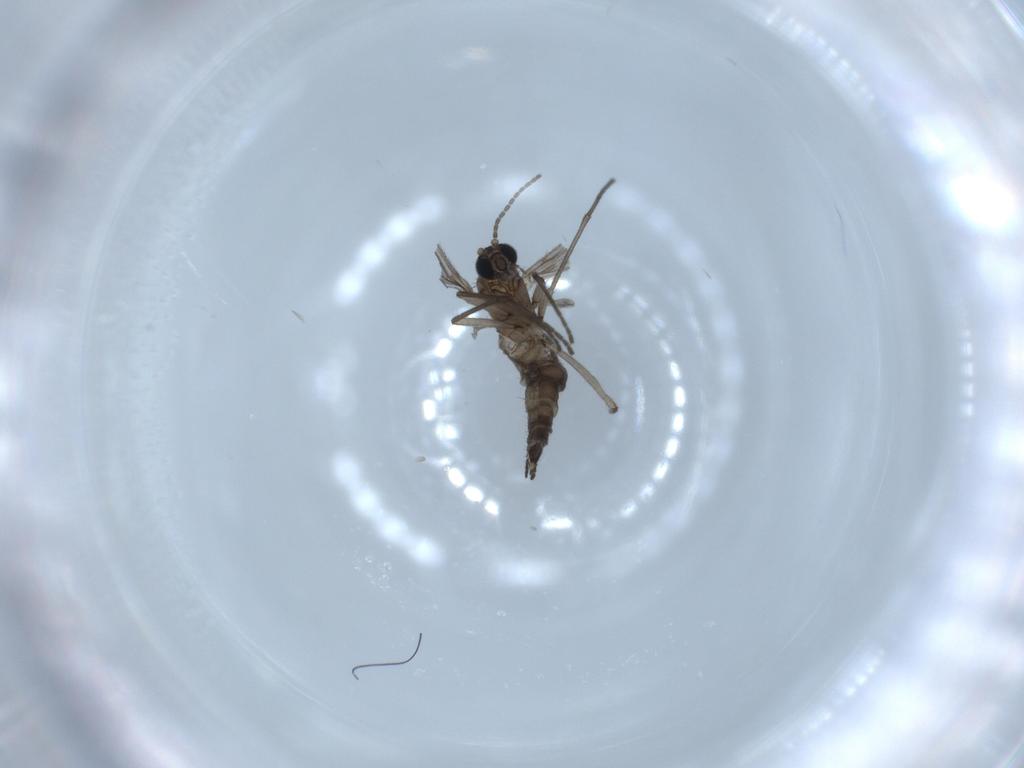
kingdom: Animalia
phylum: Arthropoda
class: Insecta
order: Diptera
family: Sciaridae
